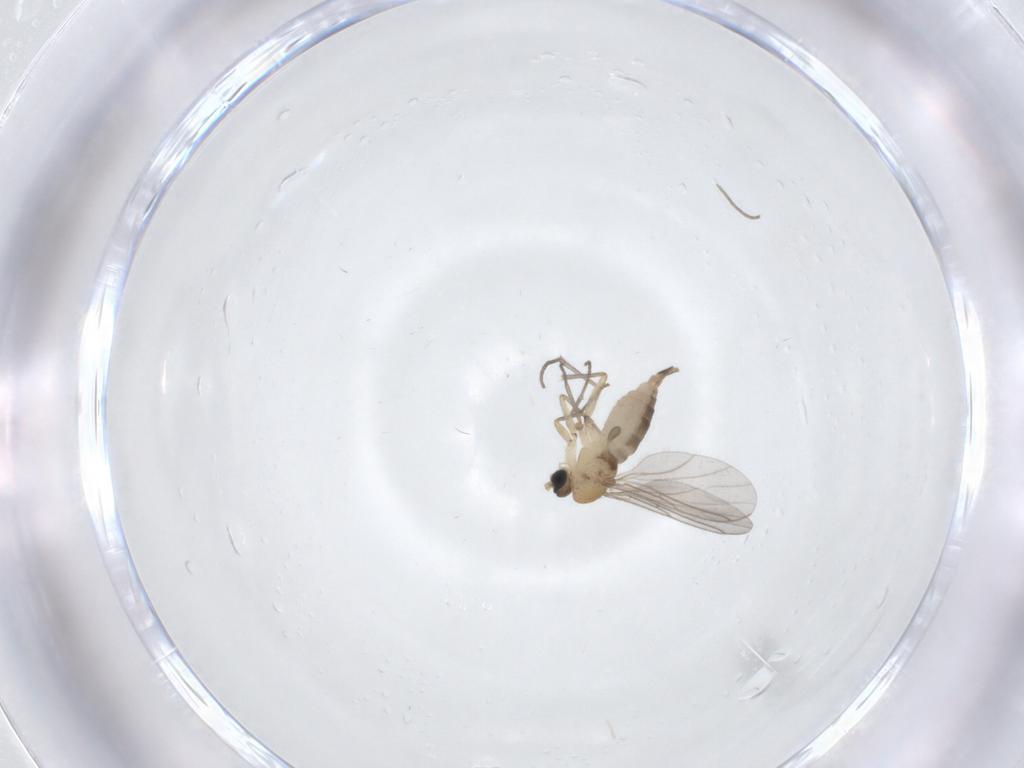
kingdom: Animalia
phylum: Arthropoda
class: Insecta
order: Diptera
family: Sciaridae
